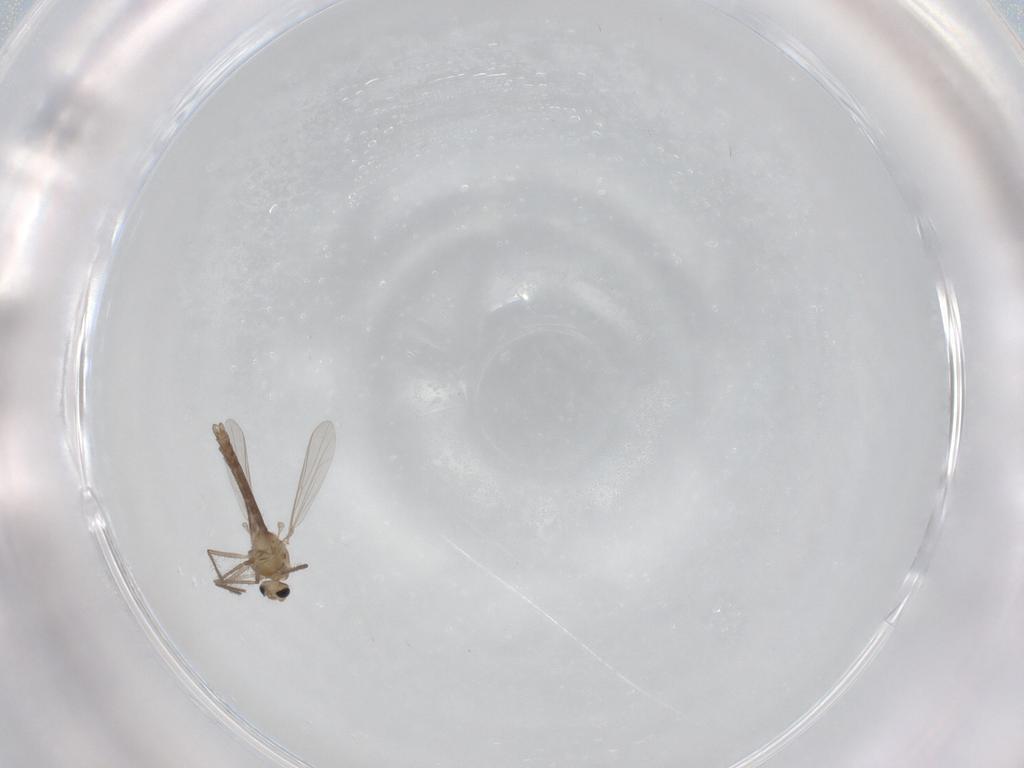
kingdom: Animalia
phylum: Arthropoda
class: Insecta
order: Diptera
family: Chironomidae
